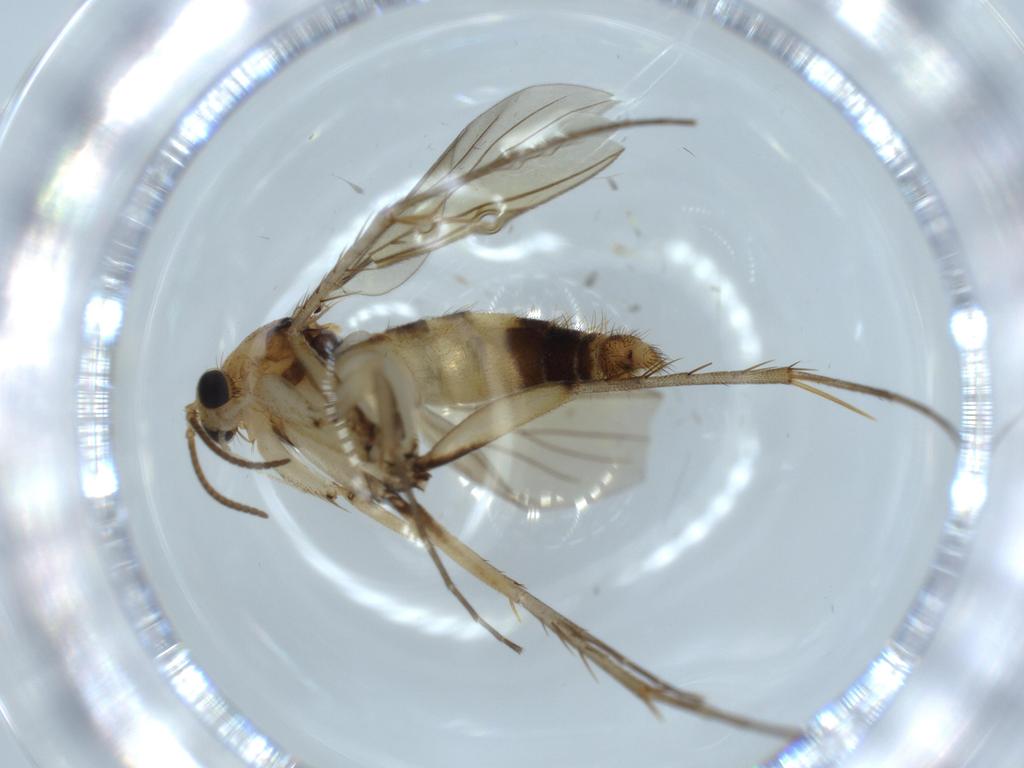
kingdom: Animalia
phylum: Arthropoda
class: Insecta
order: Diptera
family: Mycetophilidae
